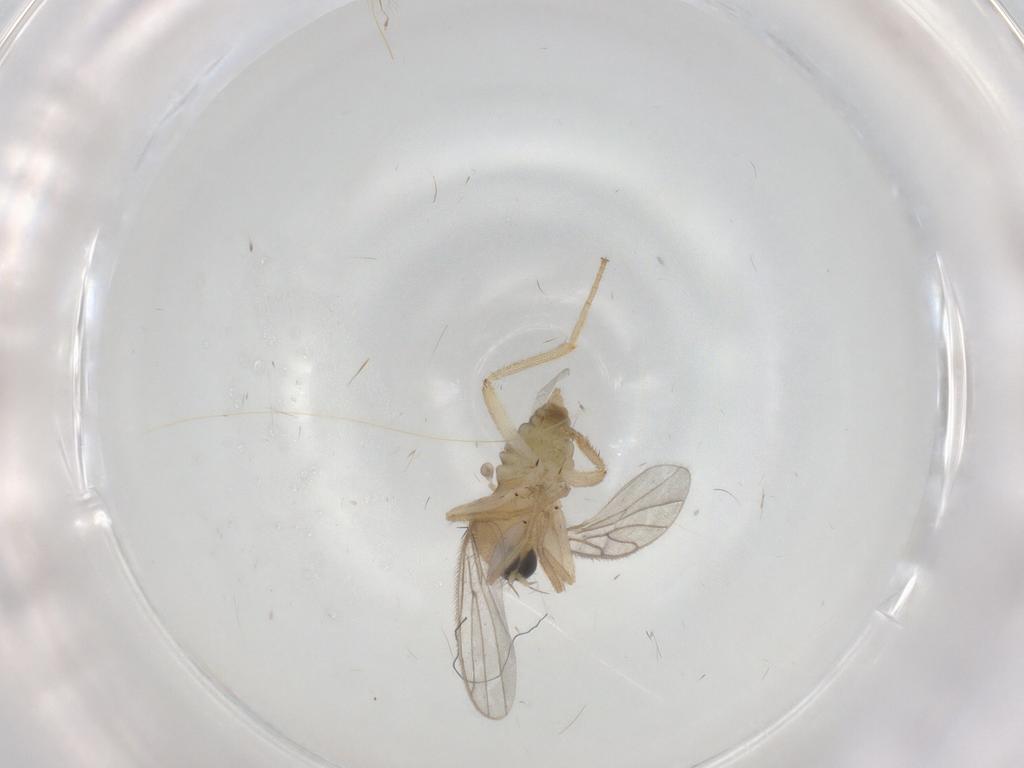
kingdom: Animalia
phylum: Arthropoda
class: Insecta
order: Diptera
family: Hybotidae
